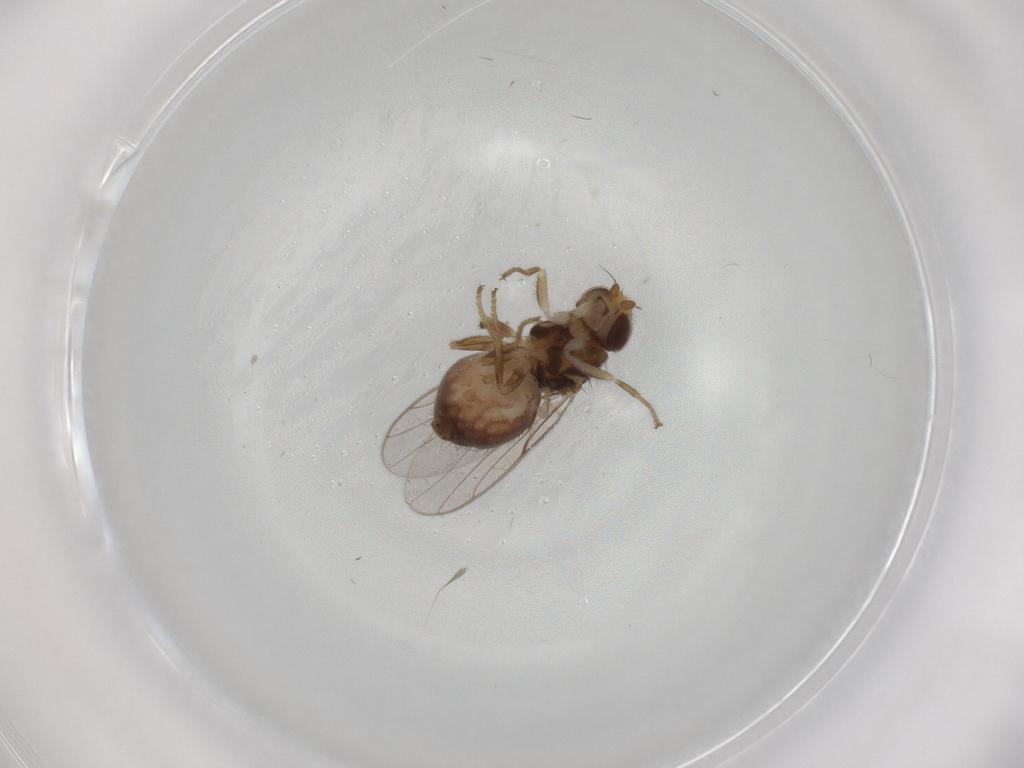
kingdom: Animalia
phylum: Arthropoda
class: Insecta
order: Diptera
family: Chloropidae
